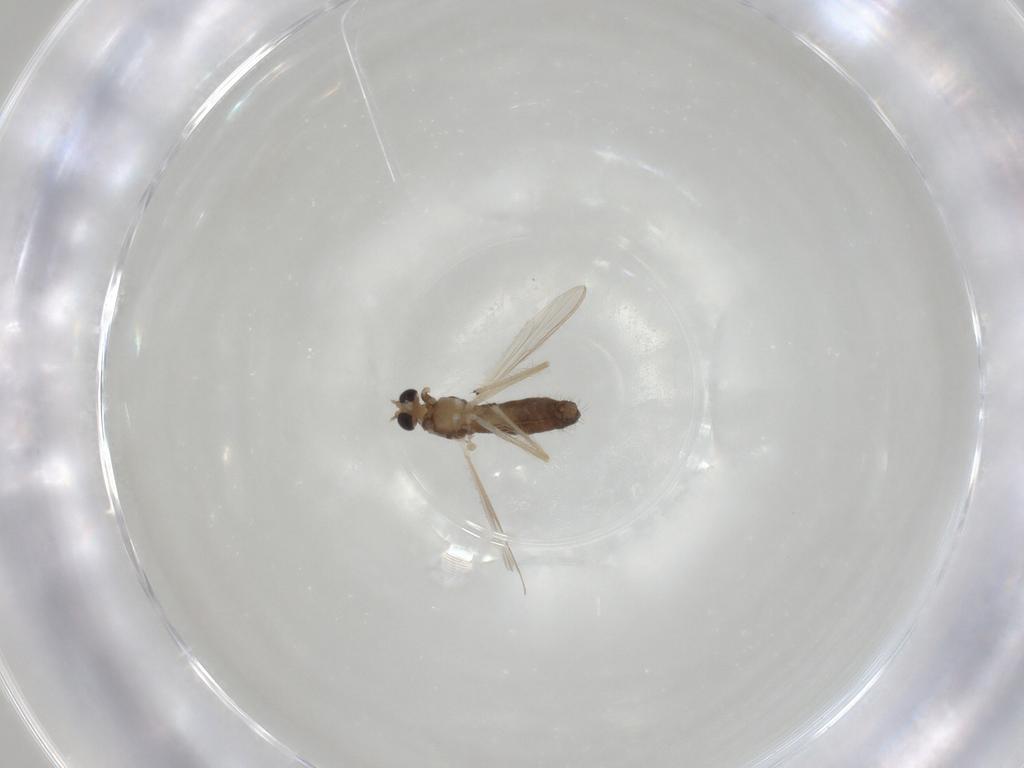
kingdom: Animalia
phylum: Arthropoda
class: Insecta
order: Diptera
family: Chironomidae
